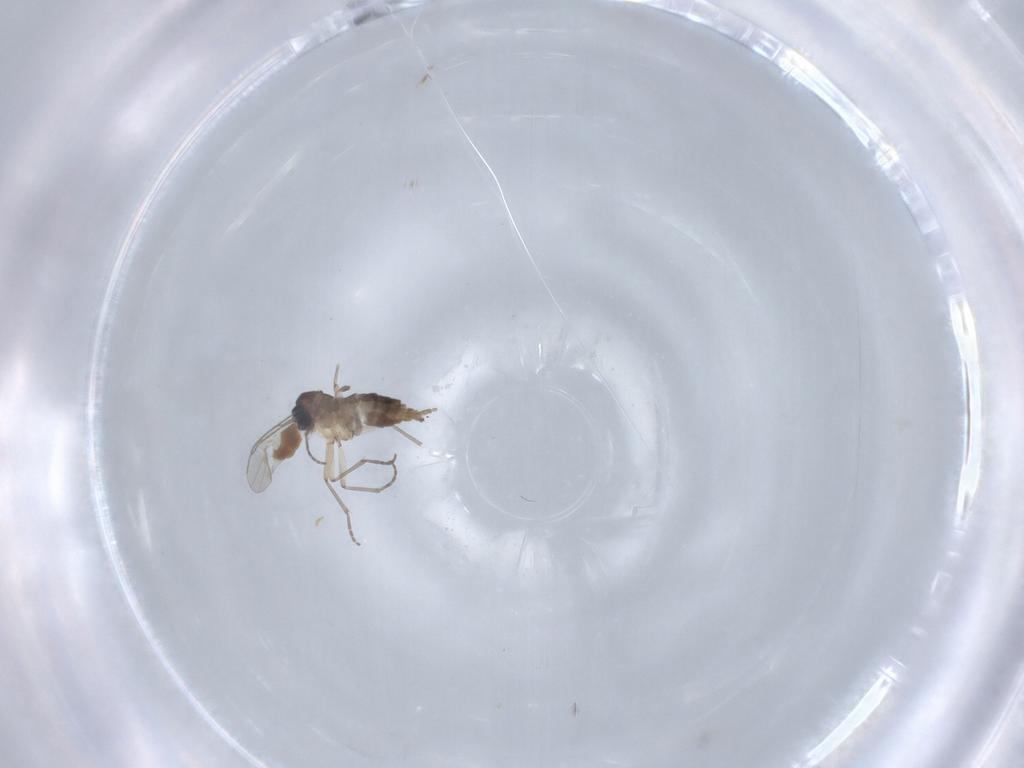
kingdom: Animalia
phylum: Arthropoda
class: Insecta
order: Diptera
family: Sciaridae
